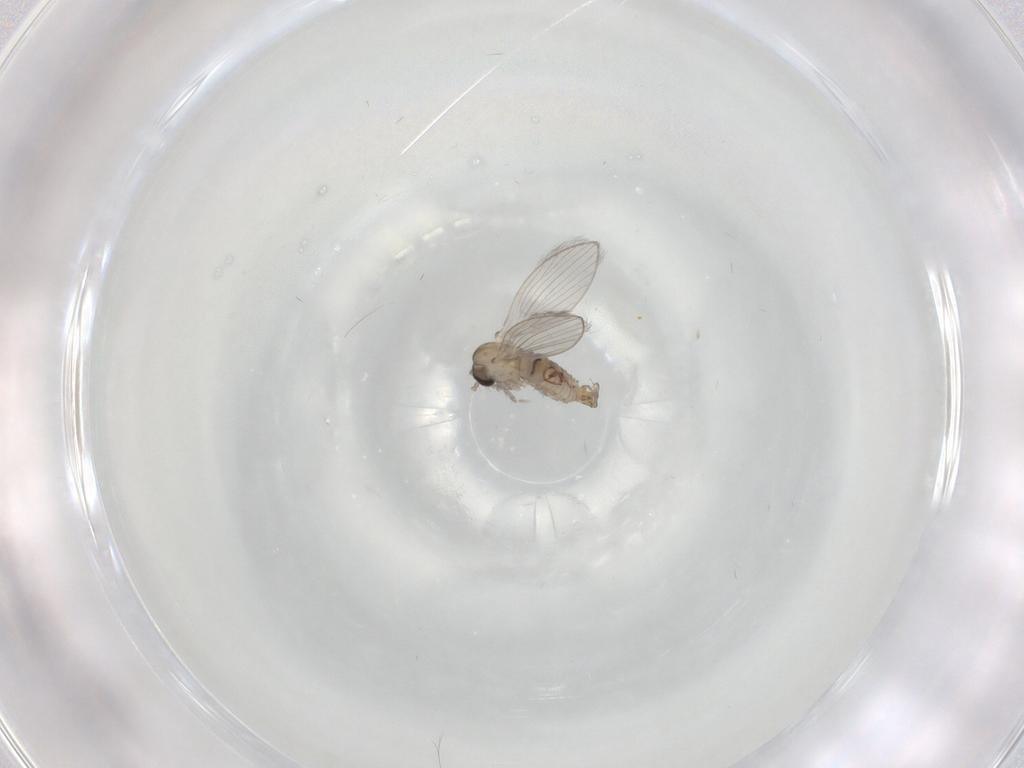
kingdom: Animalia
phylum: Arthropoda
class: Insecta
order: Diptera
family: Psychodidae
